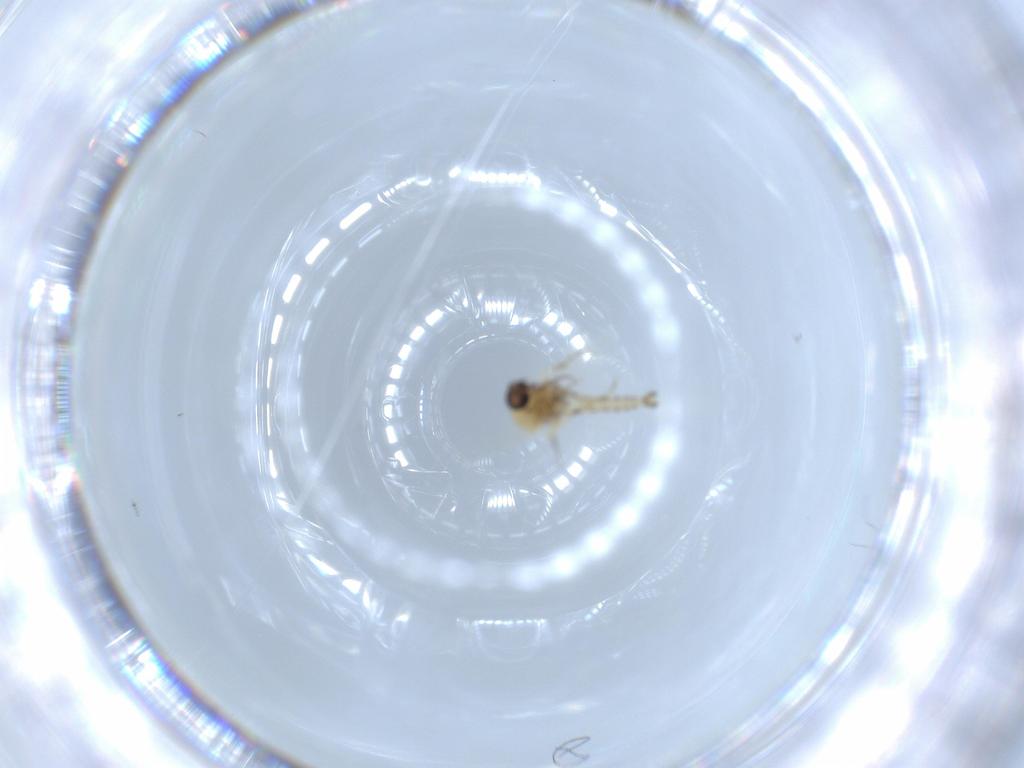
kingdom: Animalia
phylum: Arthropoda
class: Insecta
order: Diptera
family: Ceratopogonidae
